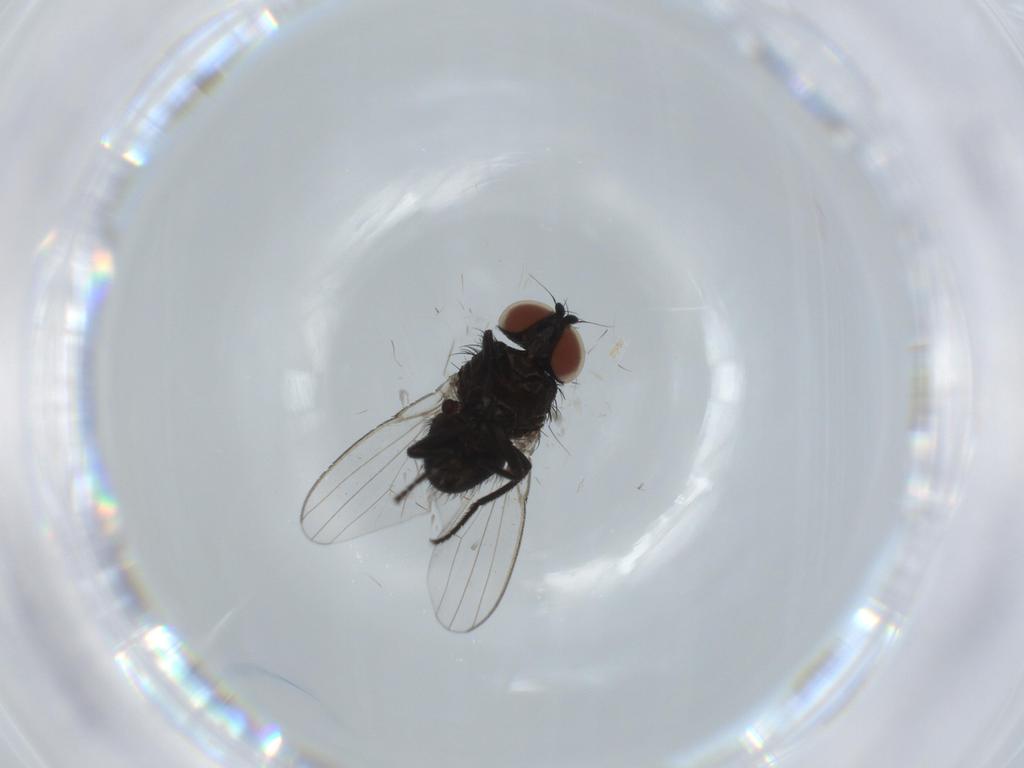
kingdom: Animalia
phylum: Arthropoda
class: Insecta
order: Diptera
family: Milichiidae
